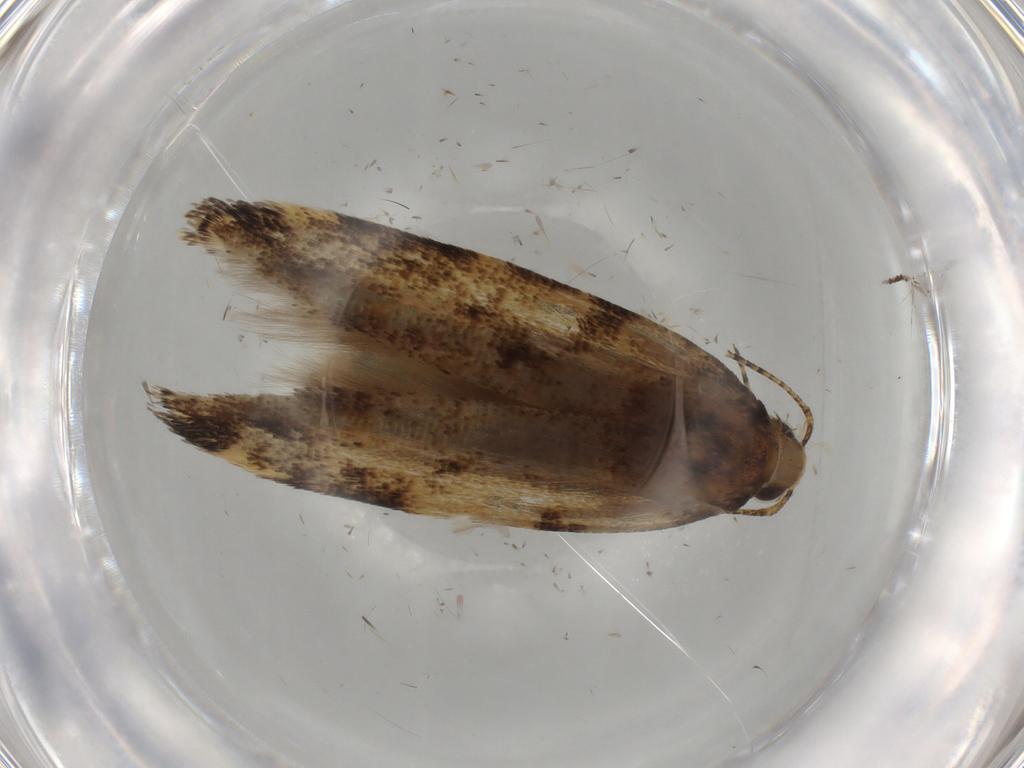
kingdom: Animalia
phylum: Arthropoda
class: Insecta
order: Lepidoptera
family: Gelechiidae
